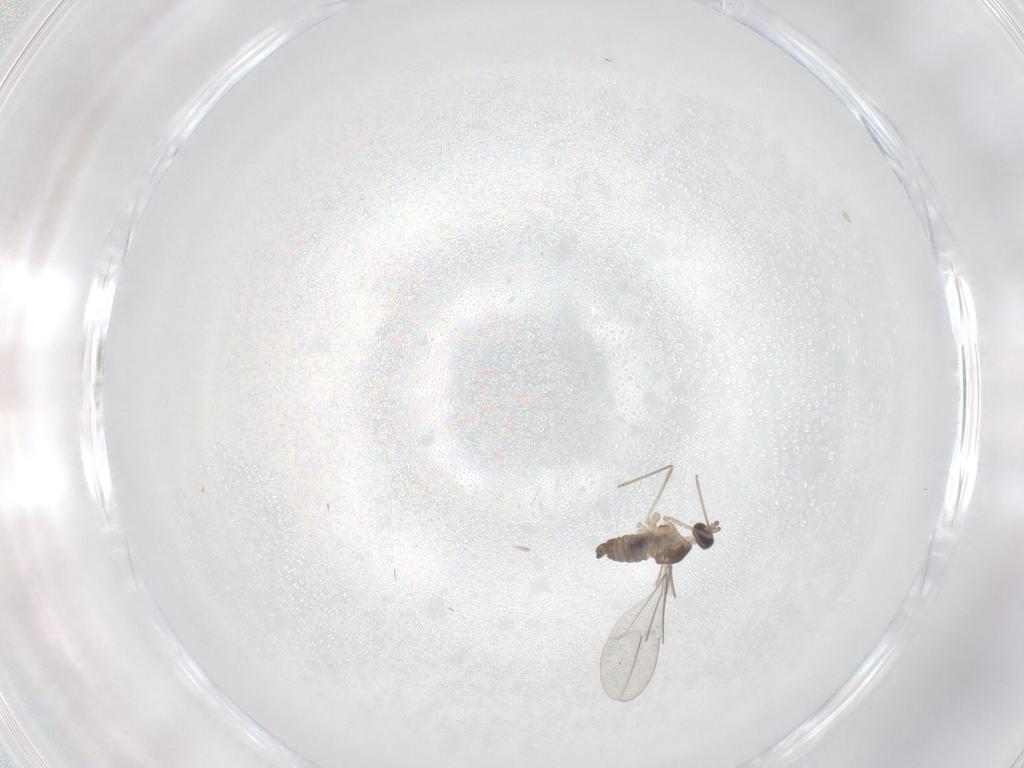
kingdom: Animalia
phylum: Arthropoda
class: Insecta
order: Diptera
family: Cecidomyiidae
